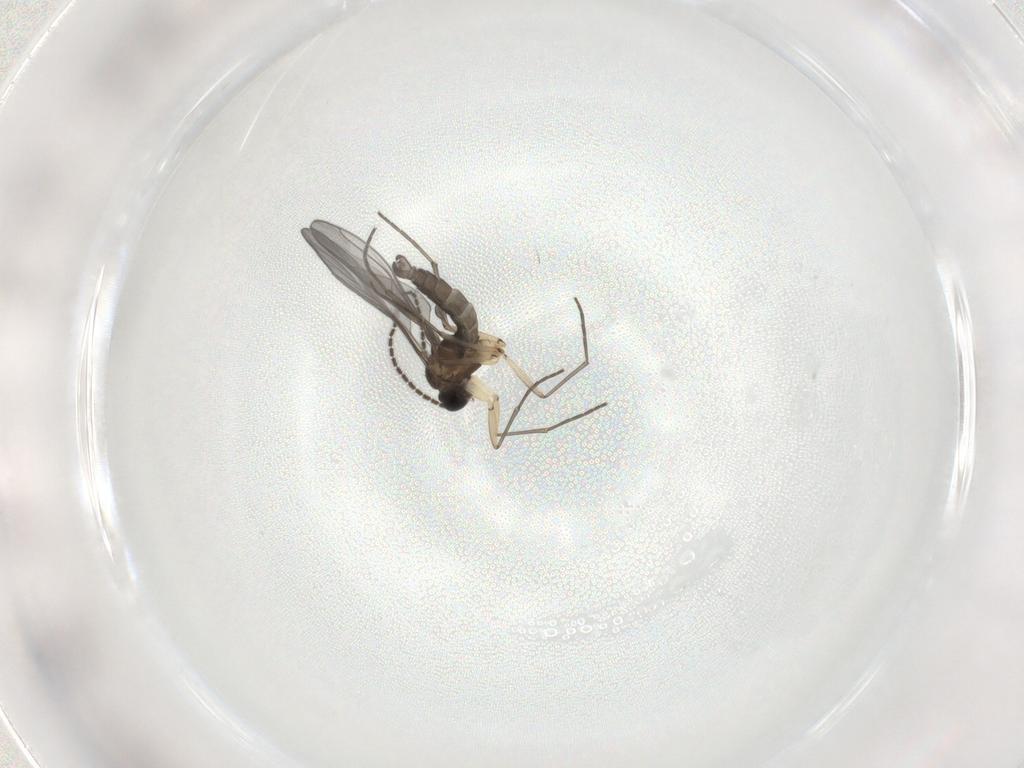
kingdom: Animalia
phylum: Arthropoda
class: Insecta
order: Diptera
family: Sciaridae
